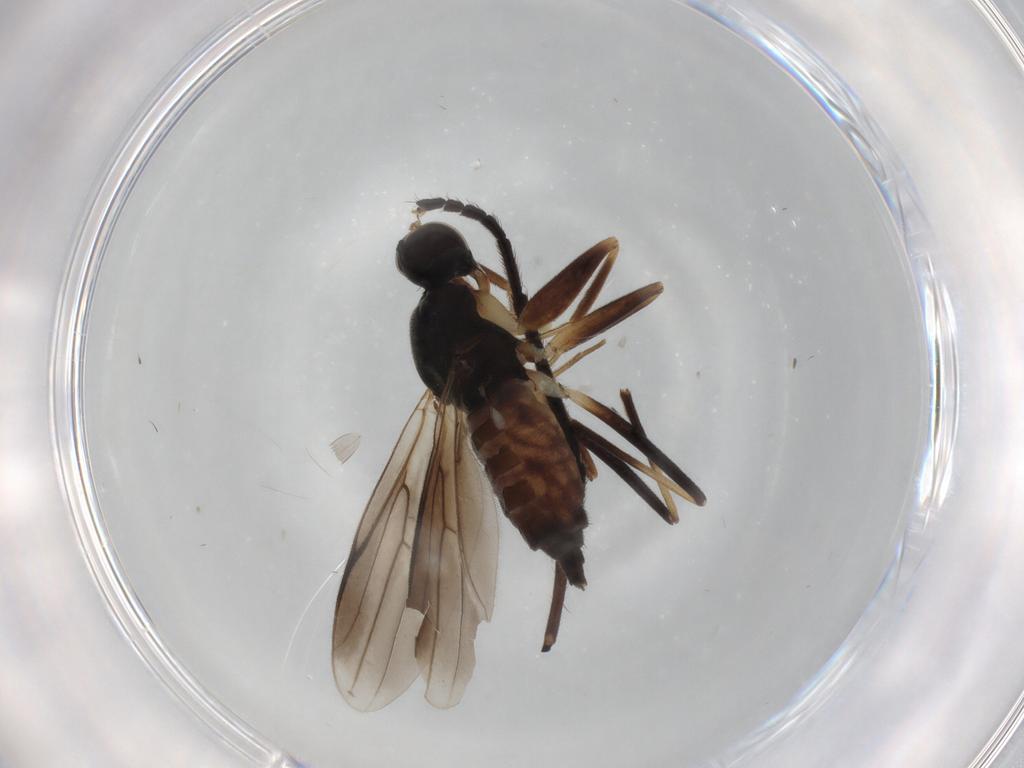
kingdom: Animalia
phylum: Arthropoda
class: Insecta
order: Diptera
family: Hybotidae
